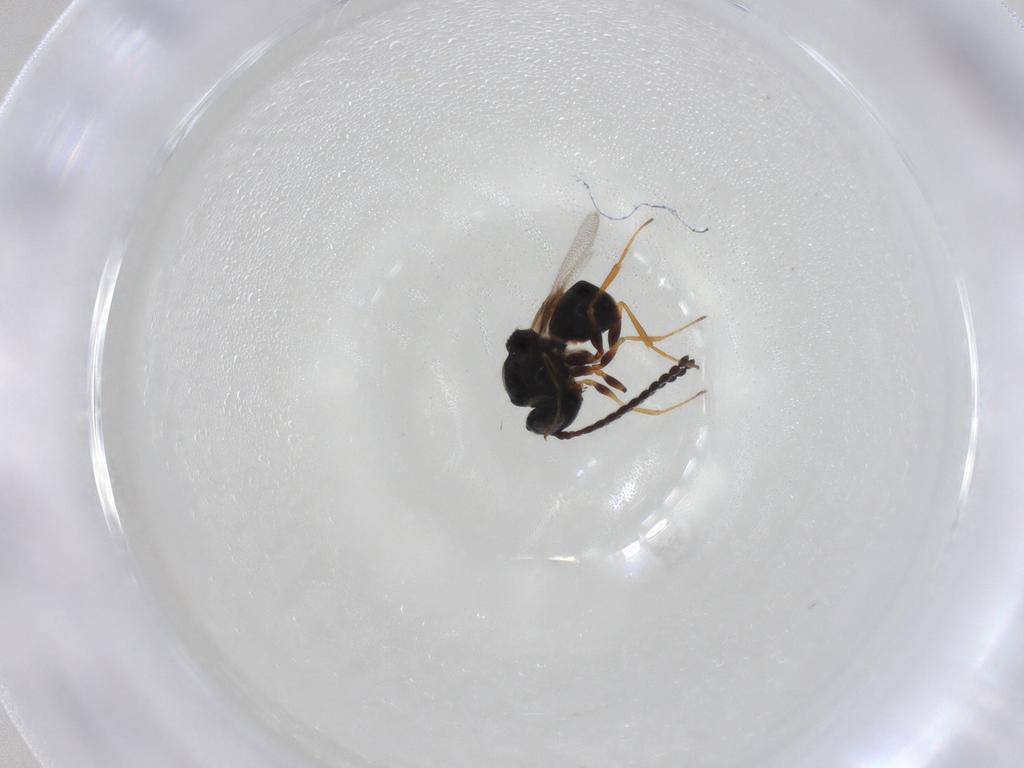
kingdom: Animalia
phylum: Arthropoda
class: Insecta
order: Hymenoptera
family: Figitidae
